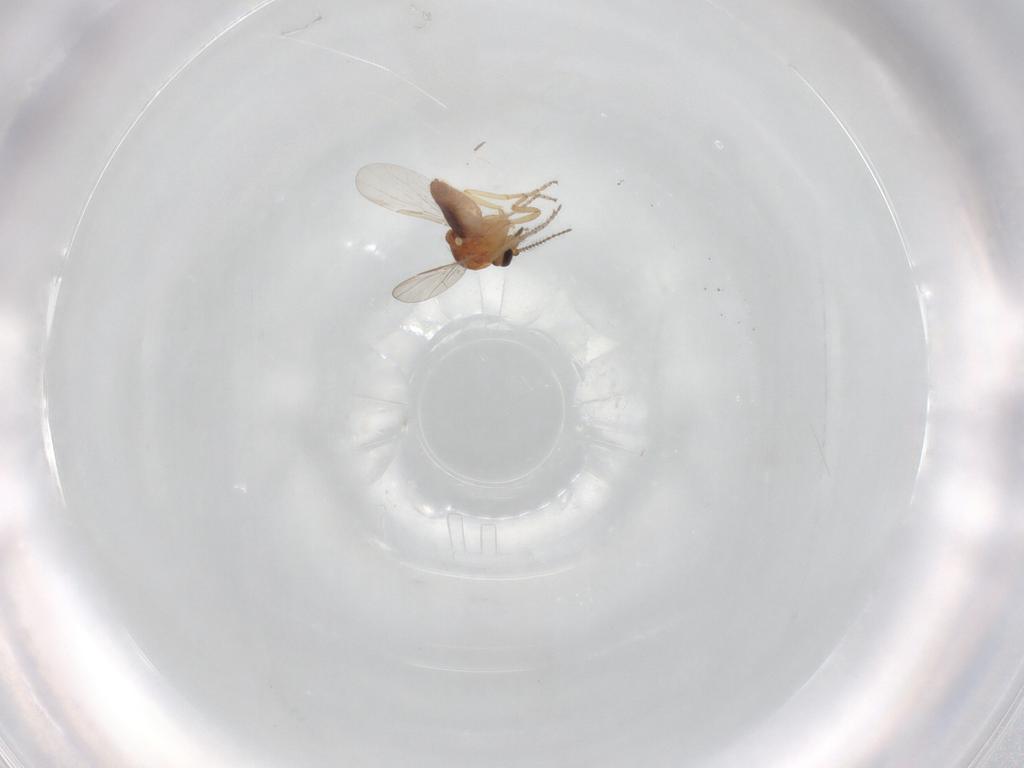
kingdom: Animalia
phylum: Arthropoda
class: Insecta
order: Diptera
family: Ceratopogonidae
